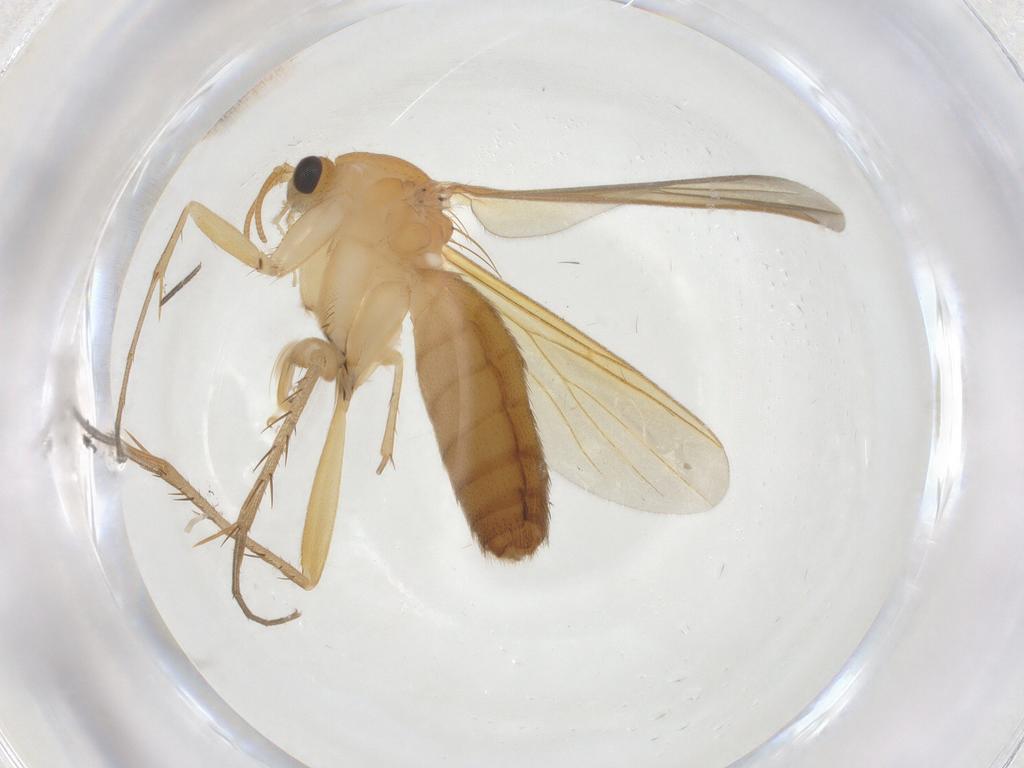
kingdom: Animalia
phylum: Arthropoda
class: Insecta
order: Diptera
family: Mycetophilidae
